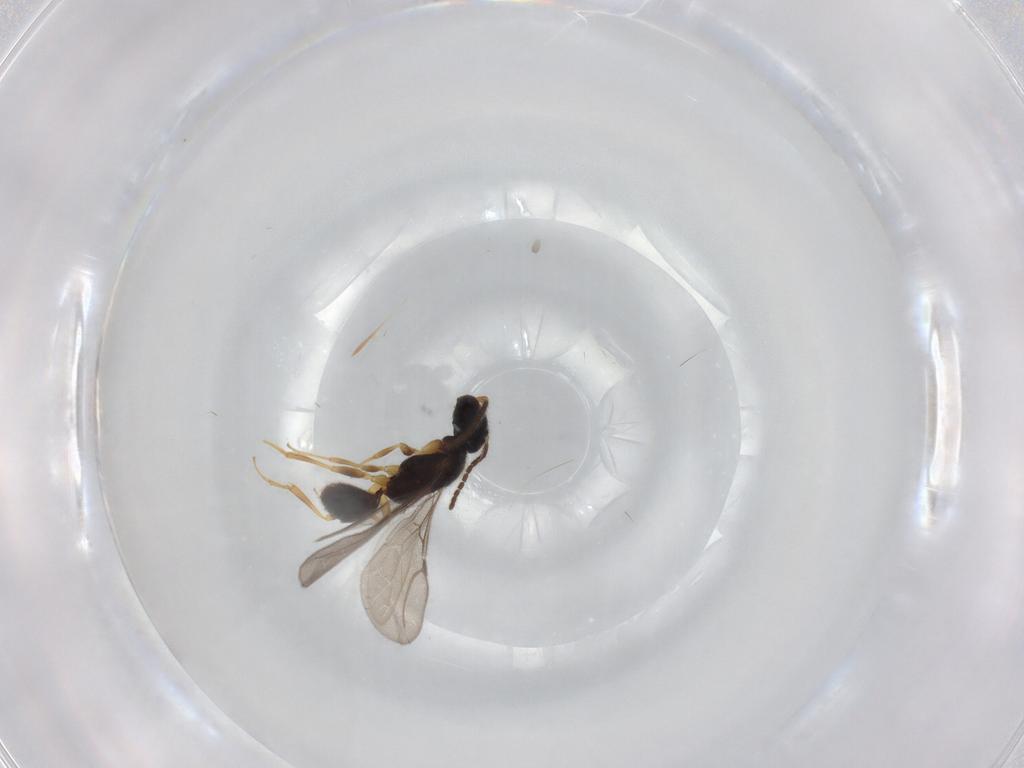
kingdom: Animalia
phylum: Arthropoda
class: Insecta
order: Hymenoptera
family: Bethylidae
